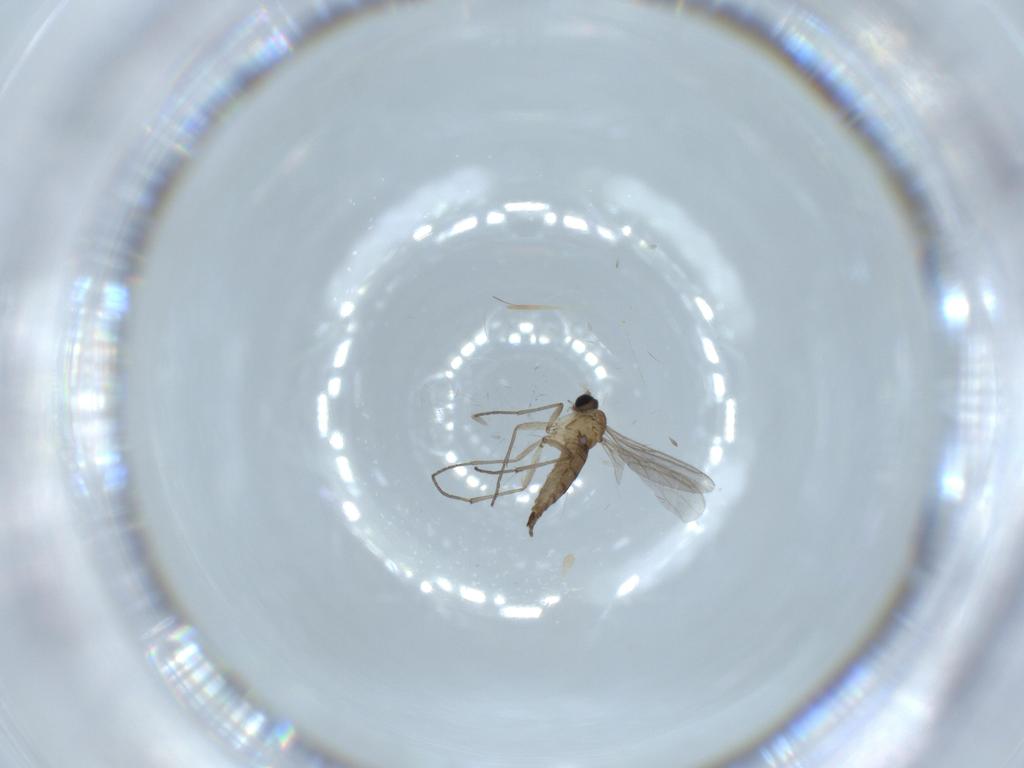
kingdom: Animalia
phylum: Arthropoda
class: Insecta
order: Diptera
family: Sciaridae
